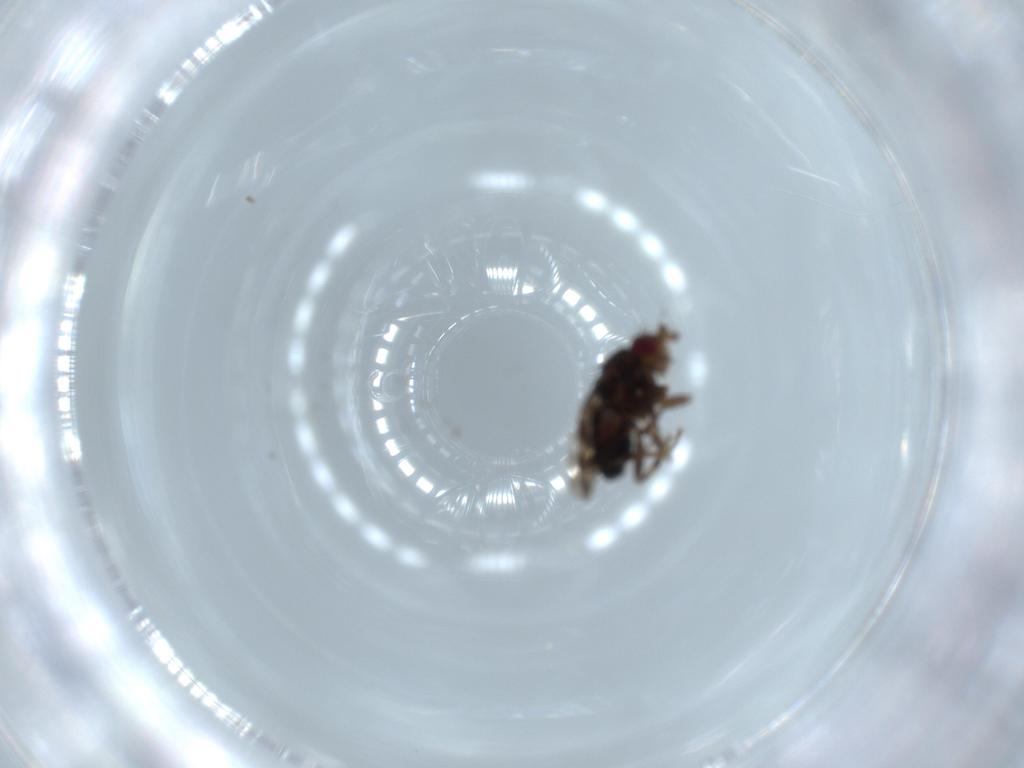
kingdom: Animalia
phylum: Arthropoda
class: Insecta
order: Diptera
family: Sphaeroceridae
